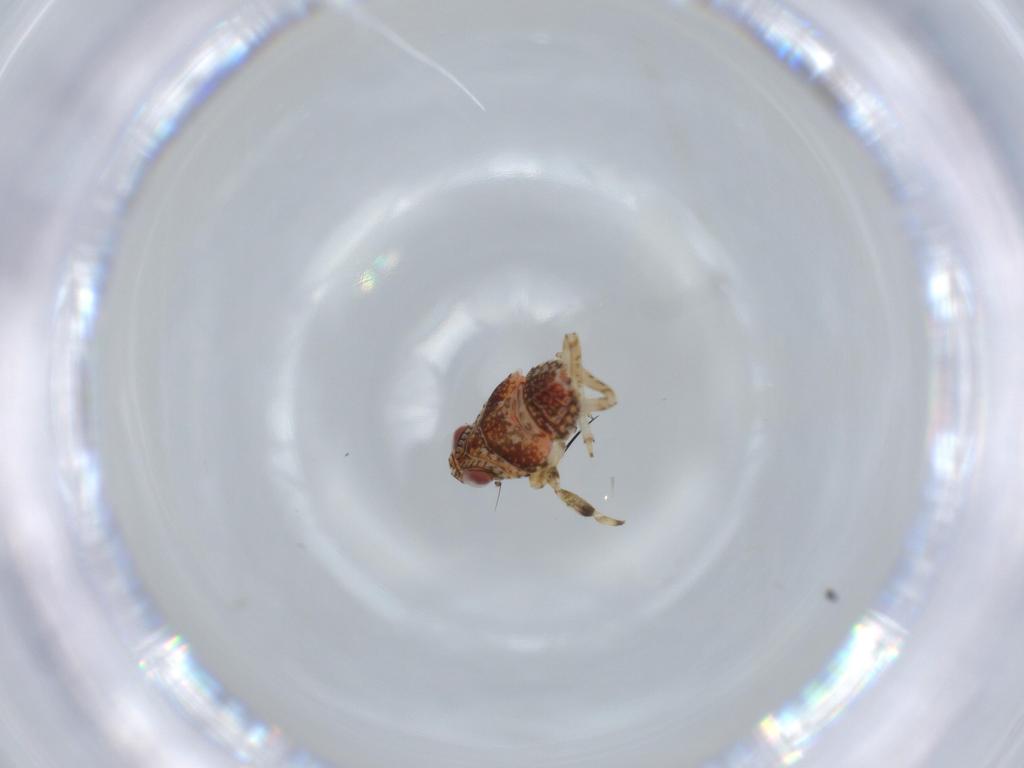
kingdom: Animalia
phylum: Arthropoda
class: Insecta
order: Hemiptera
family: Issidae
